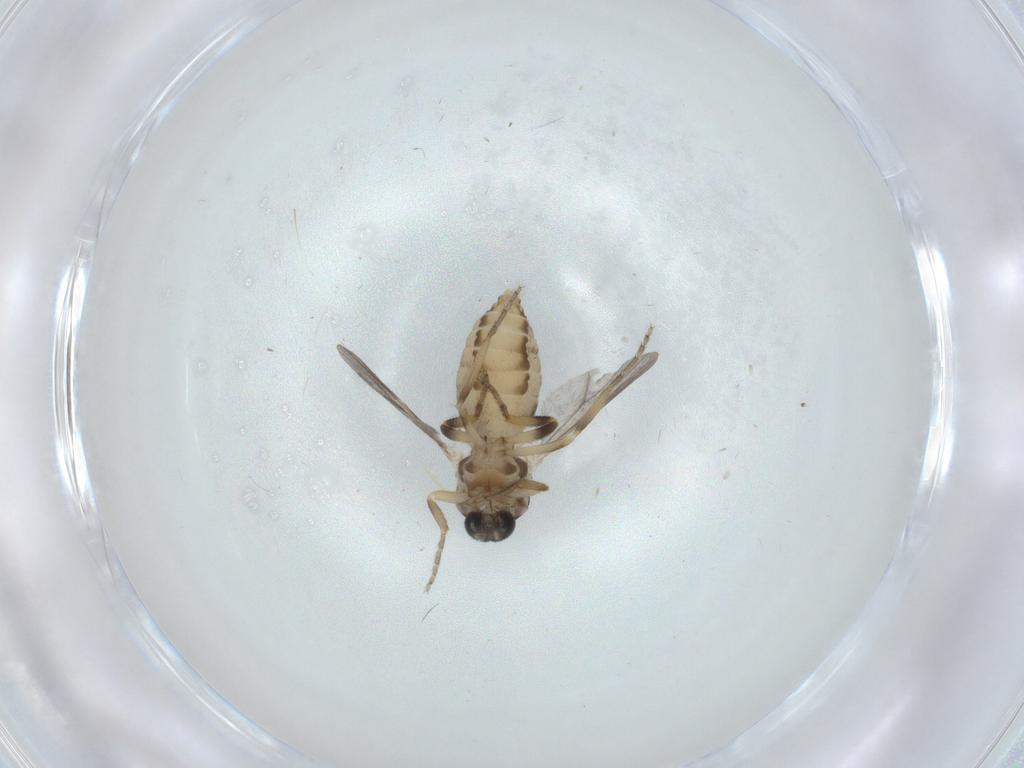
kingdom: Animalia
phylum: Arthropoda
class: Insecta
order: Diptera
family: Ceratopogonidae
